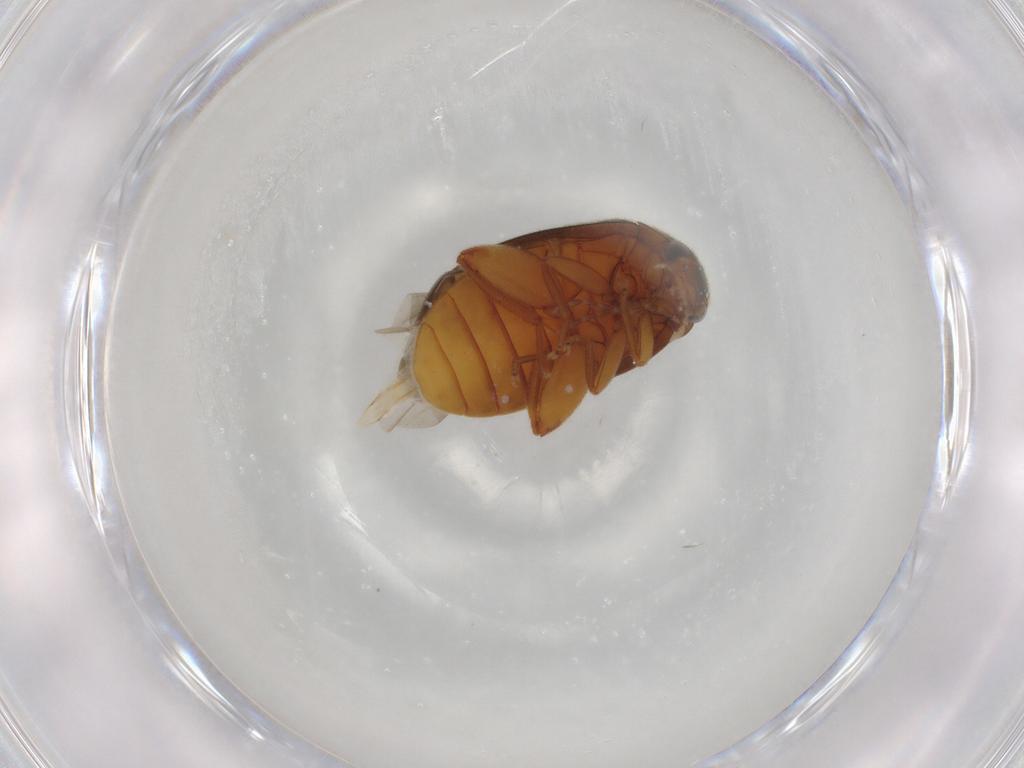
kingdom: Animalia
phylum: Arthropoda
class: Insecta
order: Coleoptera
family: Scirtidae
